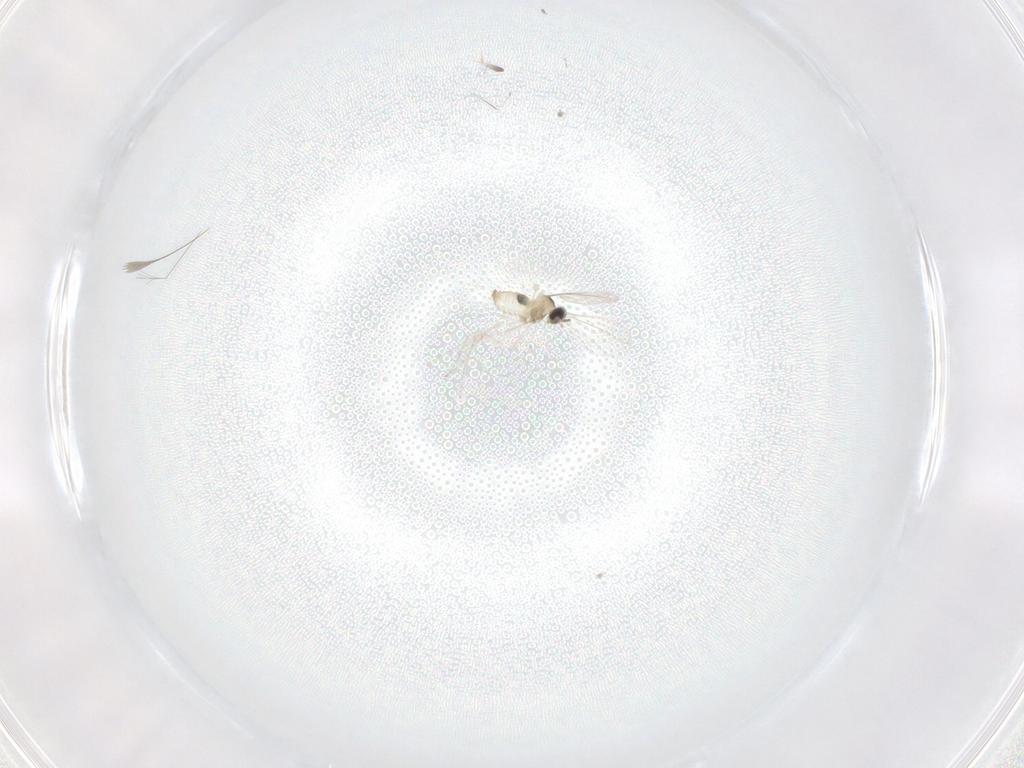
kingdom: Animalia
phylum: Arthropoda
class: Insecta
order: Diptera
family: Cecidomyiidae
